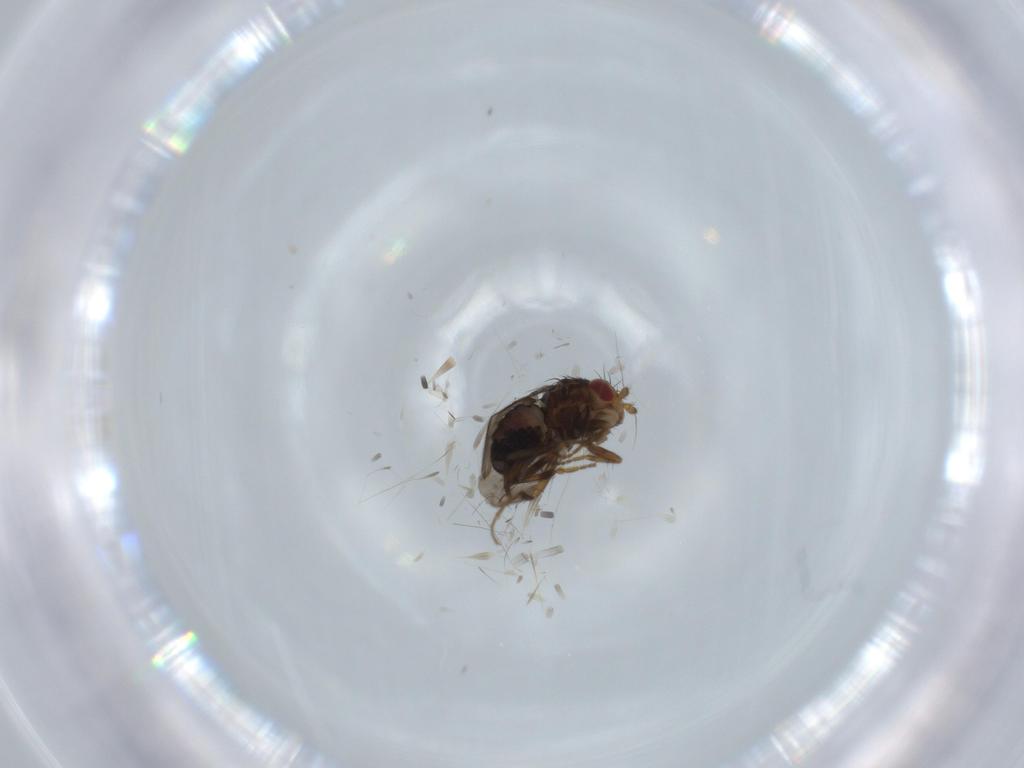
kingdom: Animalia
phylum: Arthropoda
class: Insecta
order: Diptera
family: Sphaeroceridae
